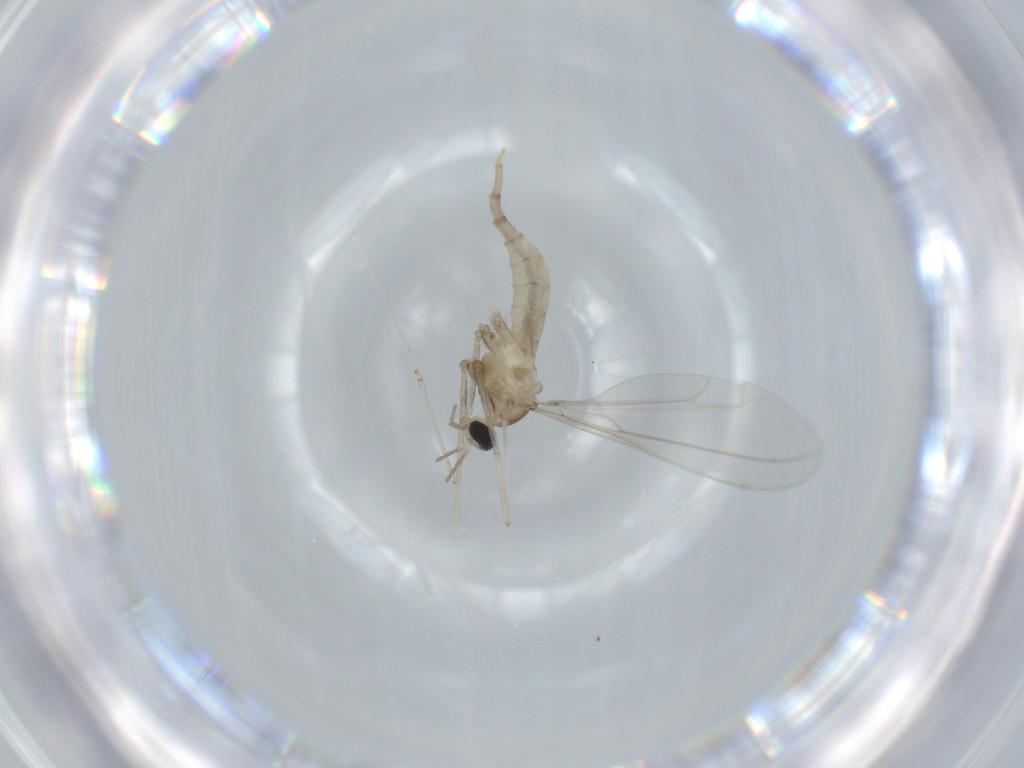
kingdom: Animalia
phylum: Arthropoda
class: Insecta
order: Diptera
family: Cecidomyiidae
